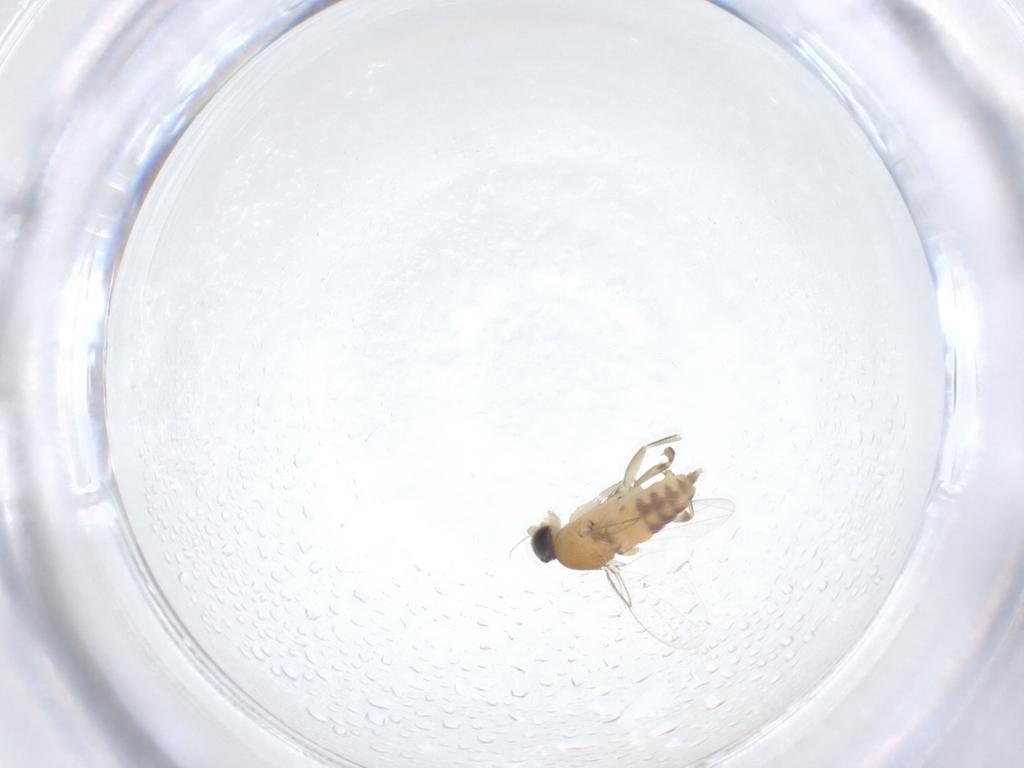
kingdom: Animalia
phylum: Arthropoda
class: Insecta
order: Diptera
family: Phoridae
